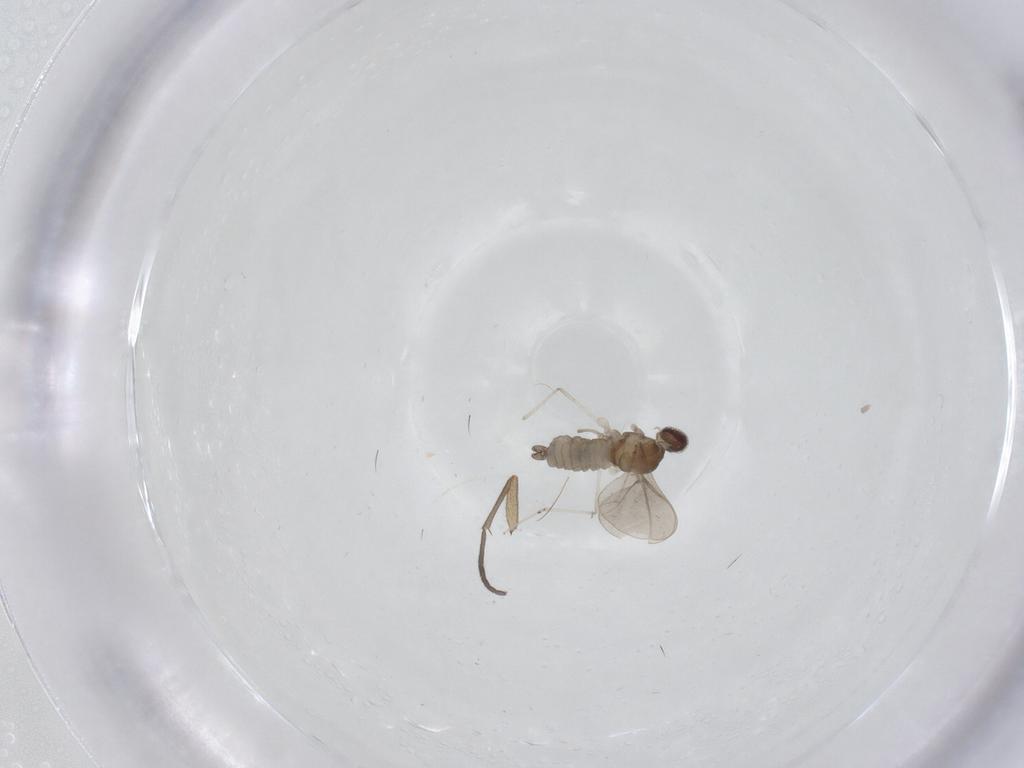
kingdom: Animalia
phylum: Arthropoda
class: Insecta
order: Diptera
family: Cecidomyiidae
